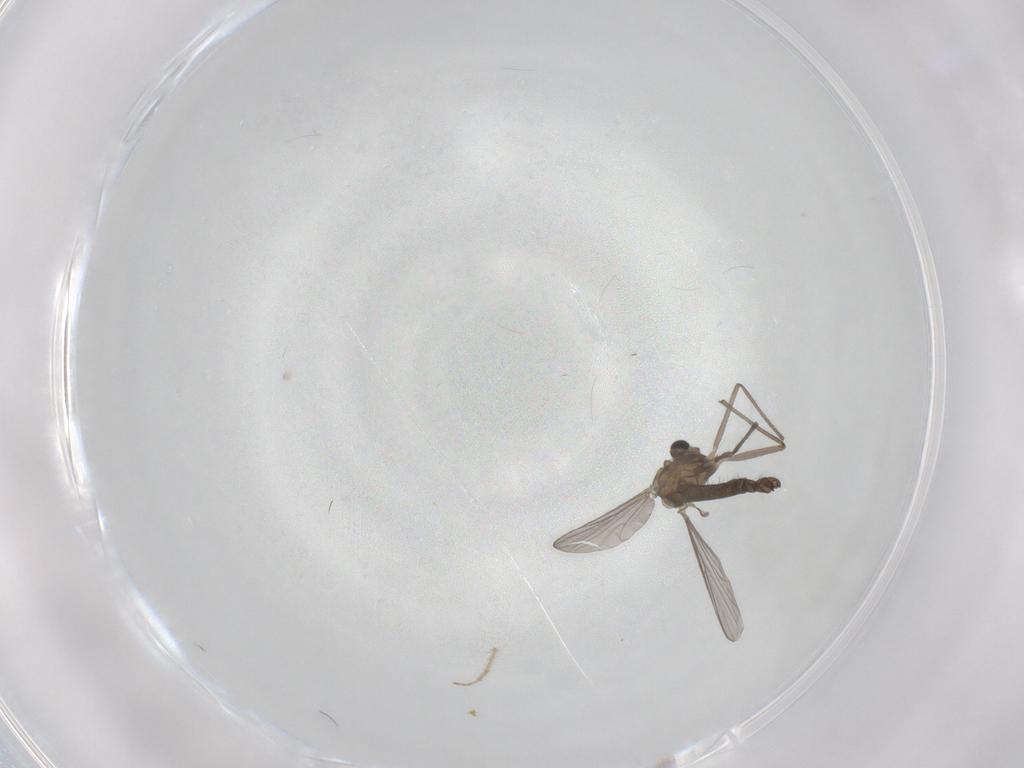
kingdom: Animalia
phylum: Arthropoda
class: Insecta
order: Diptera
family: Chironomidae
